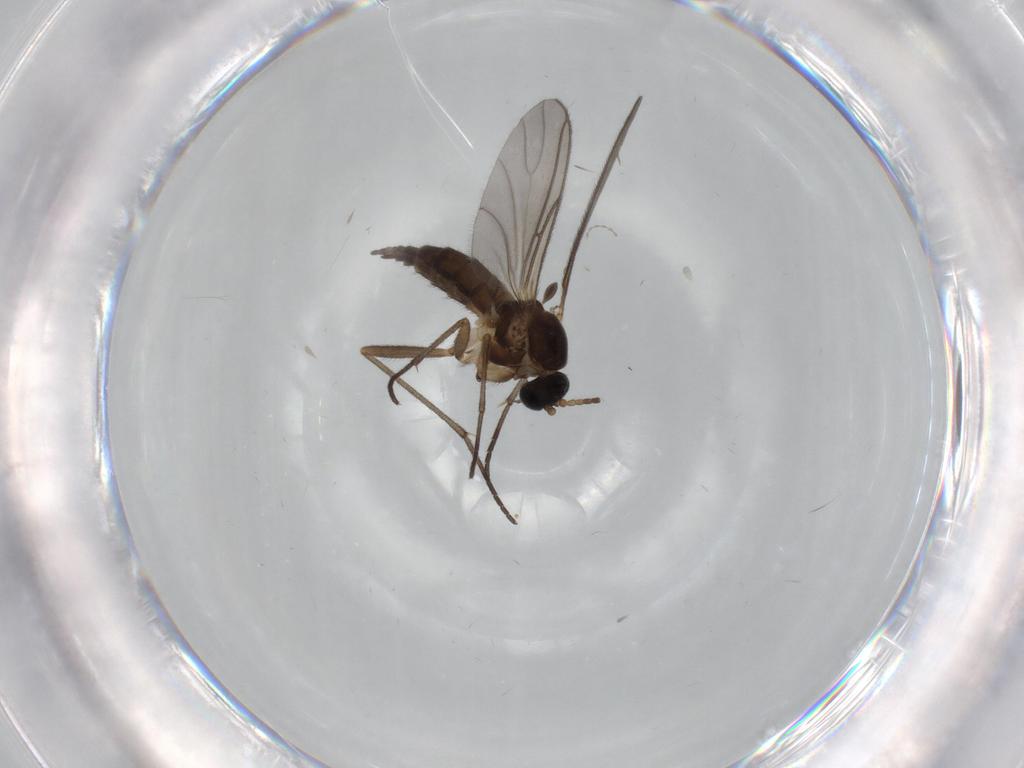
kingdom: Animalia
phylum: Arthropoda
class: Insecta
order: Diptera
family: Sciaridae
